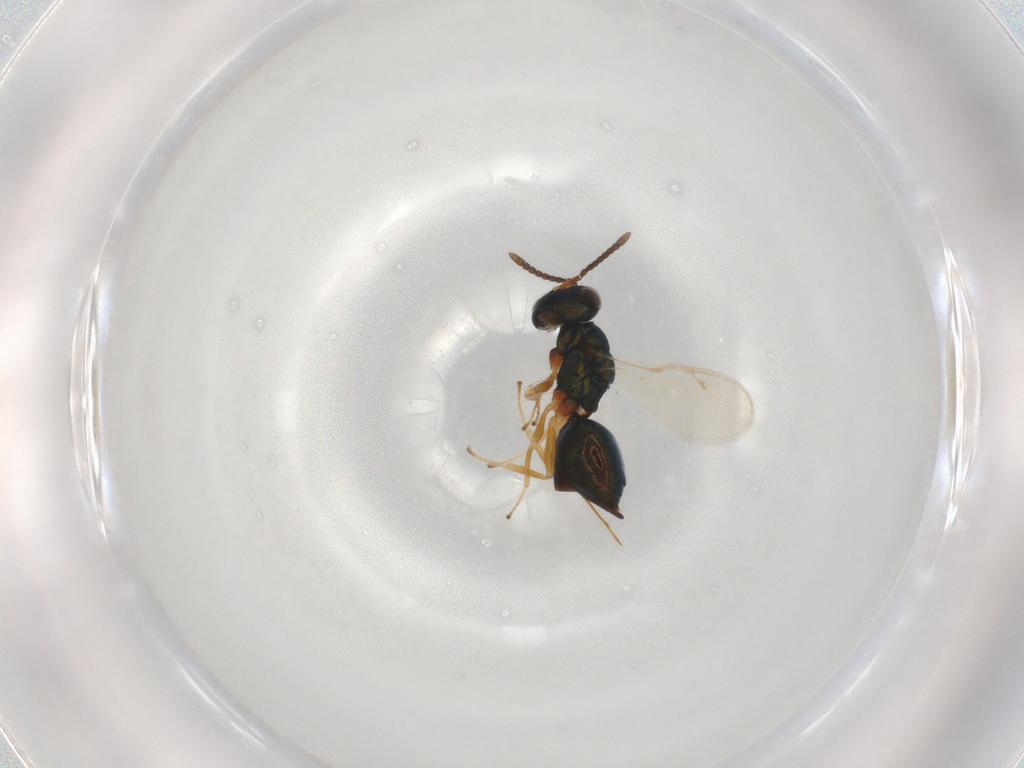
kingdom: Animalia
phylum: Arthropoda
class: Insecta
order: Hymenoptera
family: Pteromalidae
